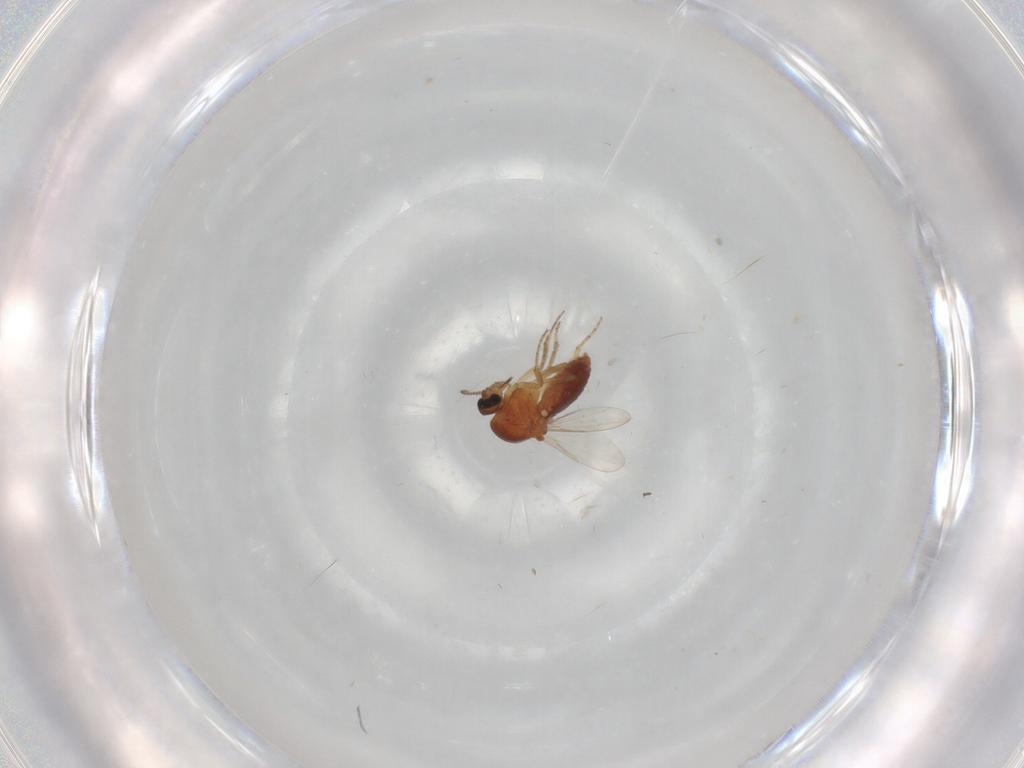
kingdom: Animalia
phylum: Arthropoda
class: Insecta
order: Diptera
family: Ceratopogonidae
